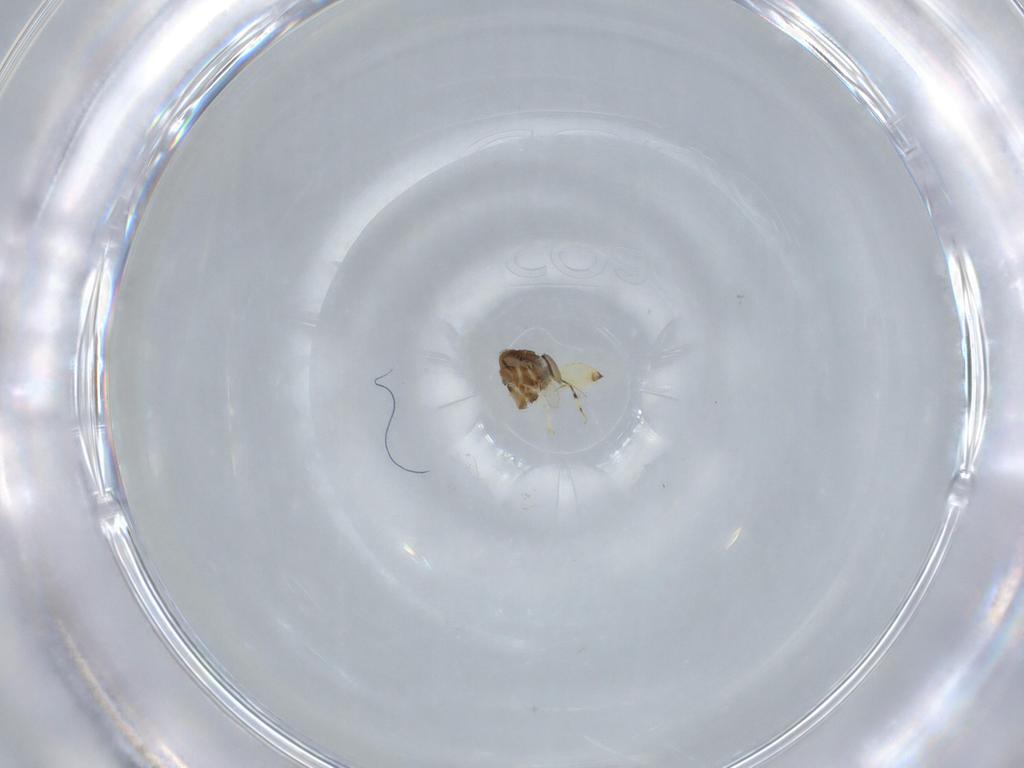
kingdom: Animalia
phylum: Arthropoda
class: Insecta
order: Hymenoptera
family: Scelionidae
